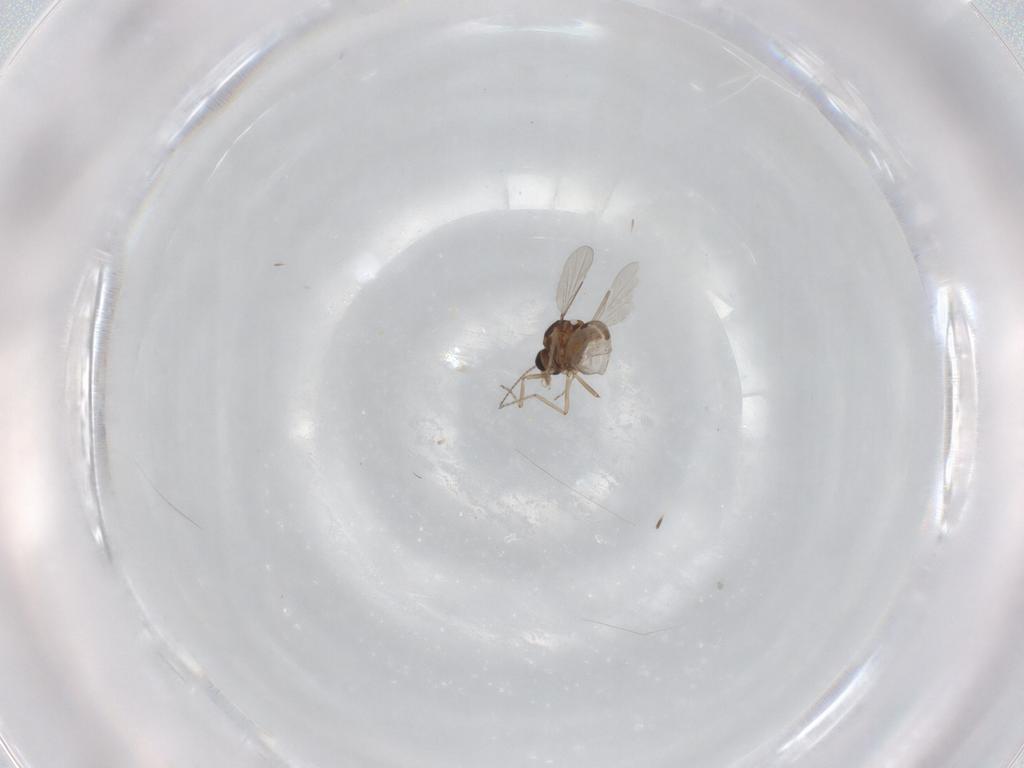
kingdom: Animalia
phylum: Arthropoda
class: Insecta
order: Diptera
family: Ceratopogonidae
